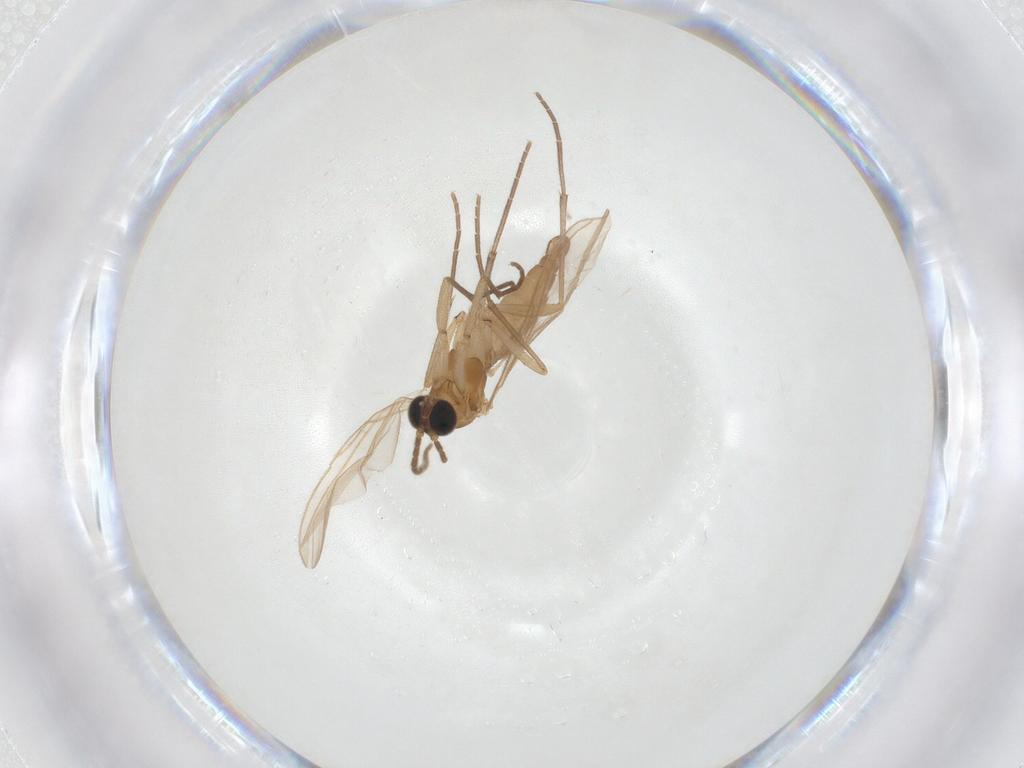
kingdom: Animalia
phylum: Arthropoda
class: Insecta
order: Diptera
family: Sciaridae
